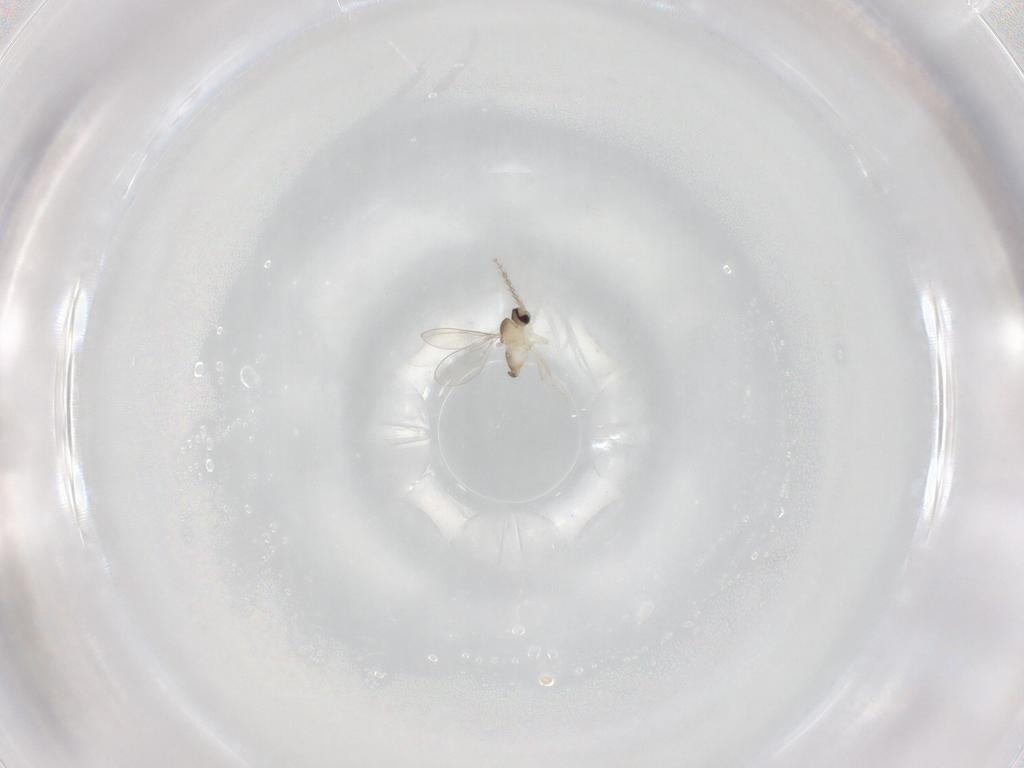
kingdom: Animalia
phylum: Arthropoda
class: Insecta
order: Diptera
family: Cecidomyiidae
